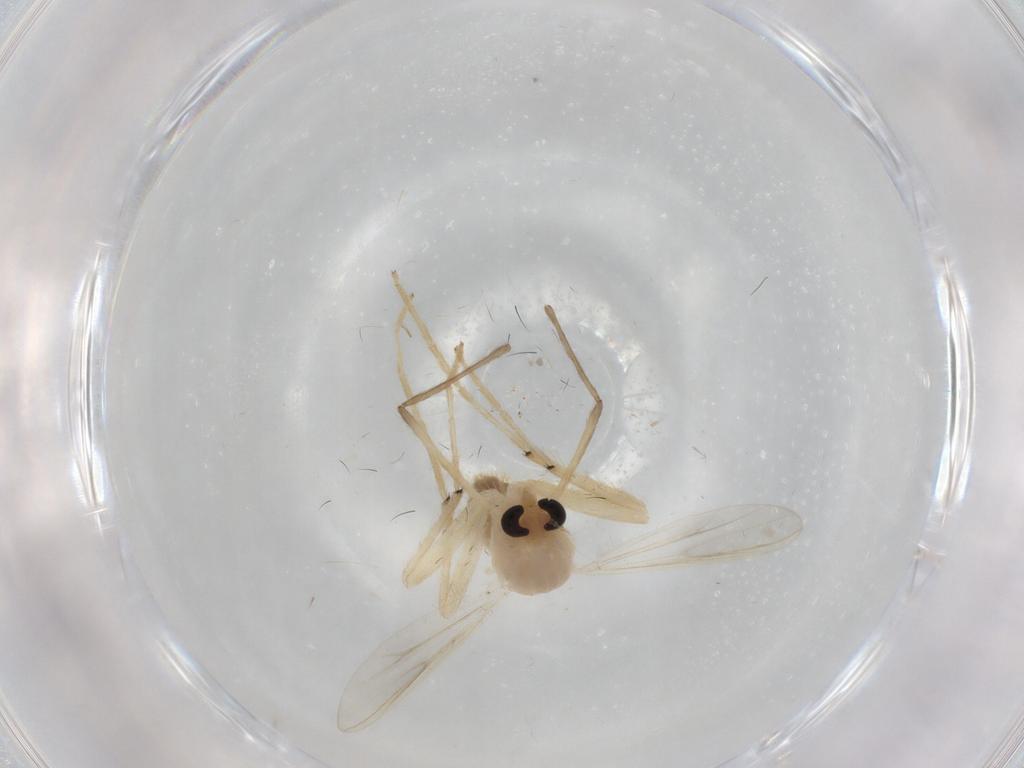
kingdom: Animalia
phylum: Arthropoda
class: Insecta
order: Diptera
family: Chironomidae
